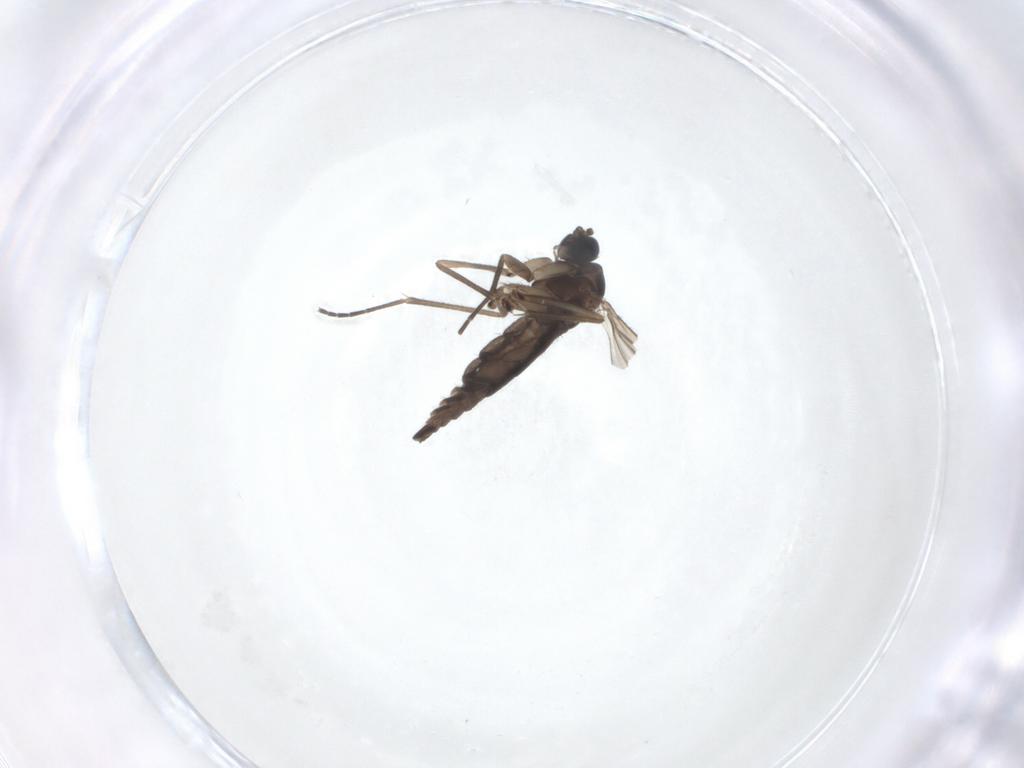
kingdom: Animalia
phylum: Arthropoda
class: Insecta
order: Diptera
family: Sciaridae
